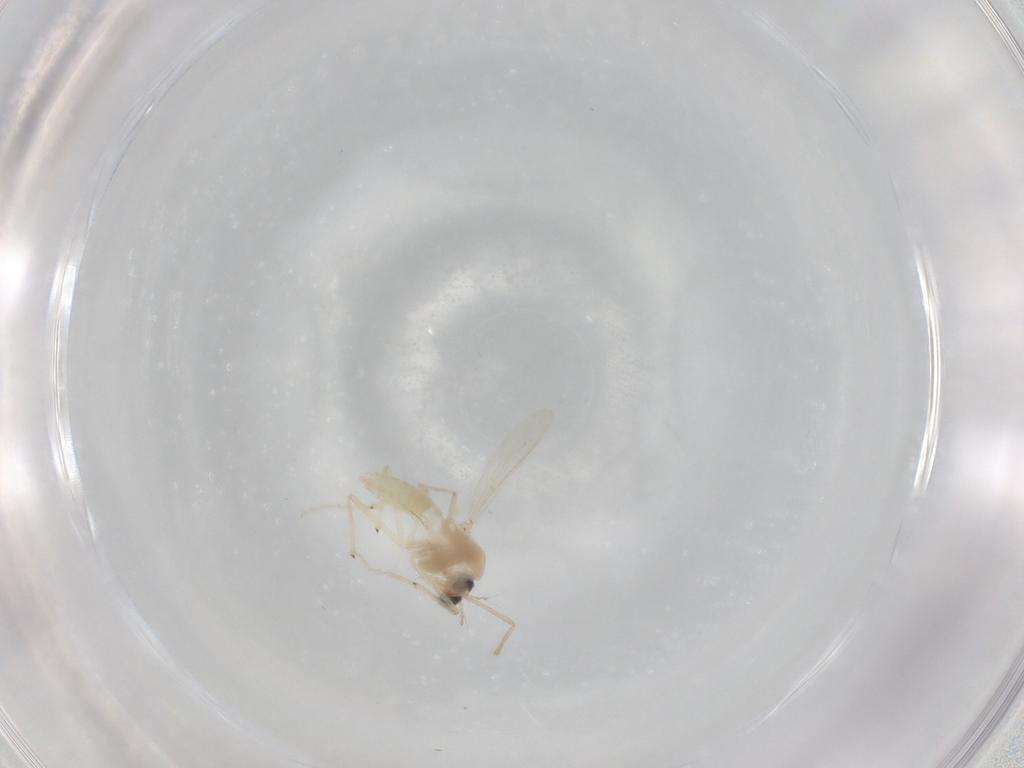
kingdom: Animalia
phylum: Arthropoda
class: Insecta
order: Diptera
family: Chironomidae
